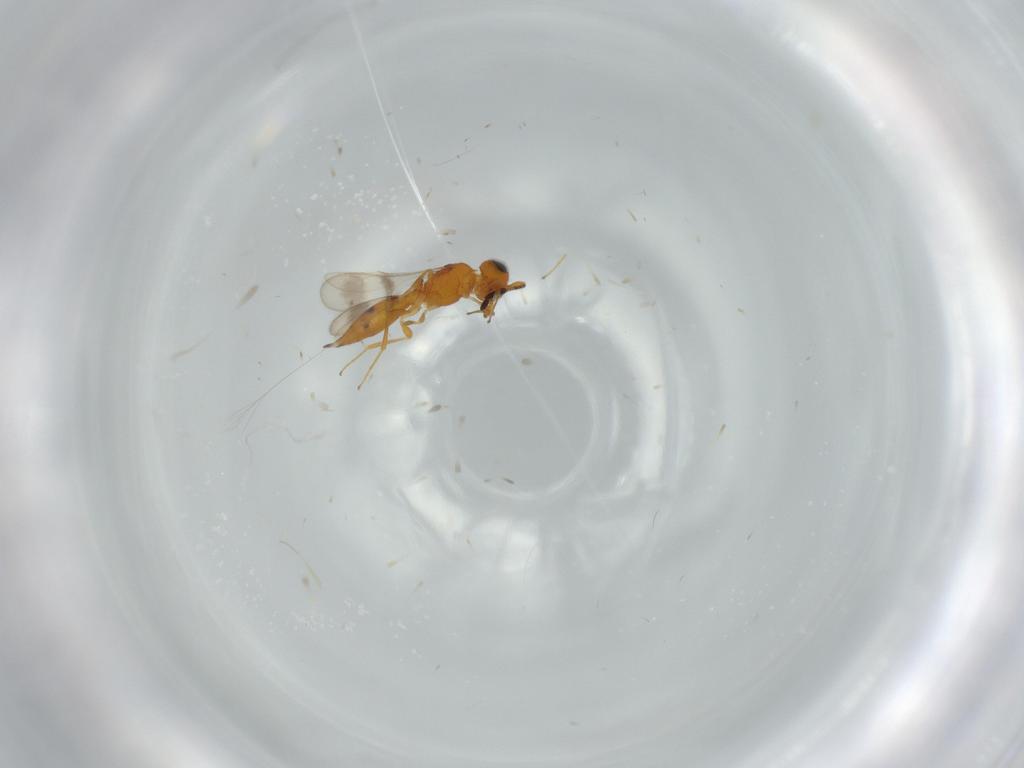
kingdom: Animalia
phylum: Arthropoda
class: Insecta
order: Hymenoptera
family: Scelionidae
